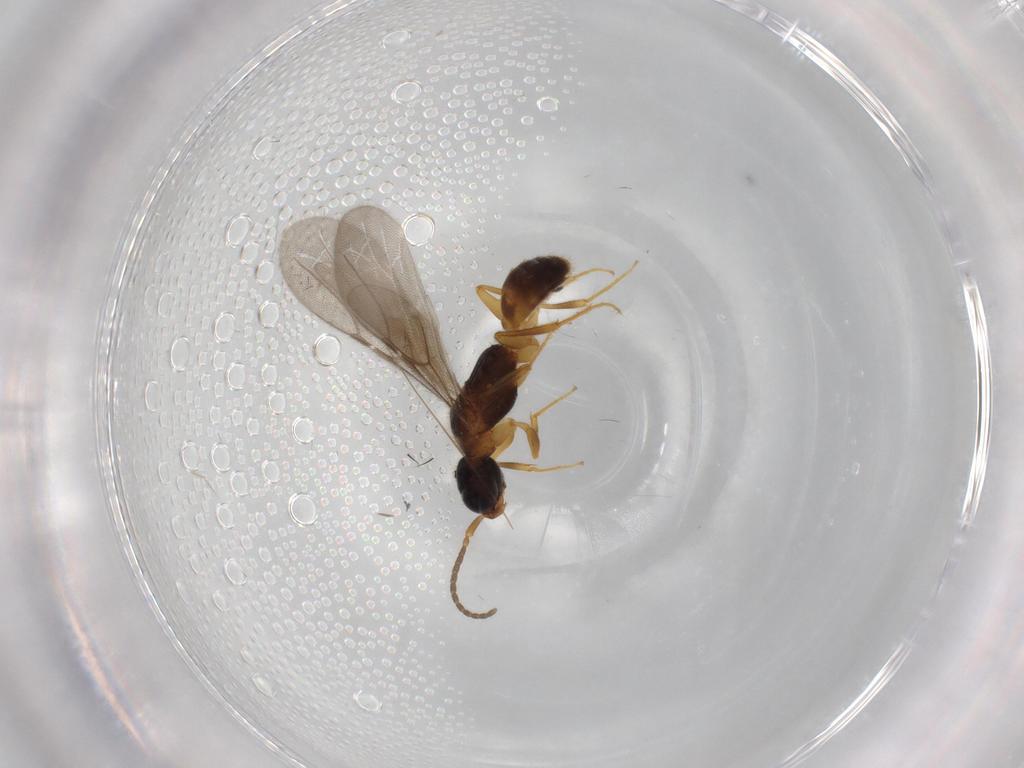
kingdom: Animalia
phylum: Arthropoda
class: Insecta
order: Hymenoptera
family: Bethylidae
